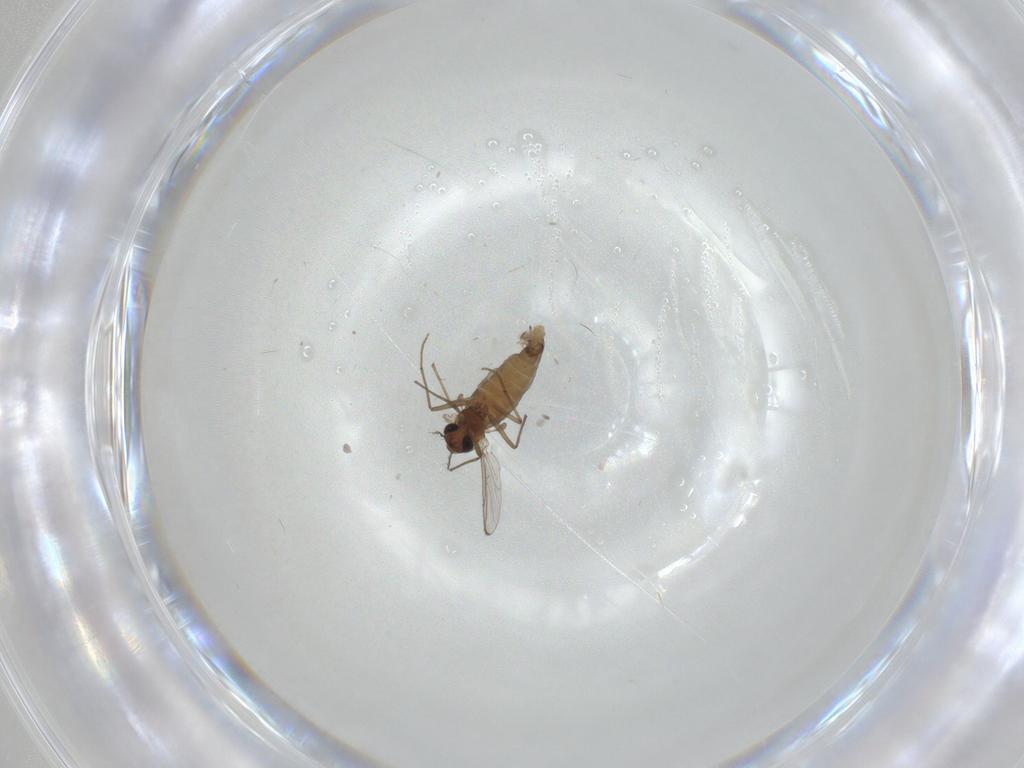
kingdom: Animalia
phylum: Arthropoda
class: Insecta
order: Diptera
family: Chironomidae
